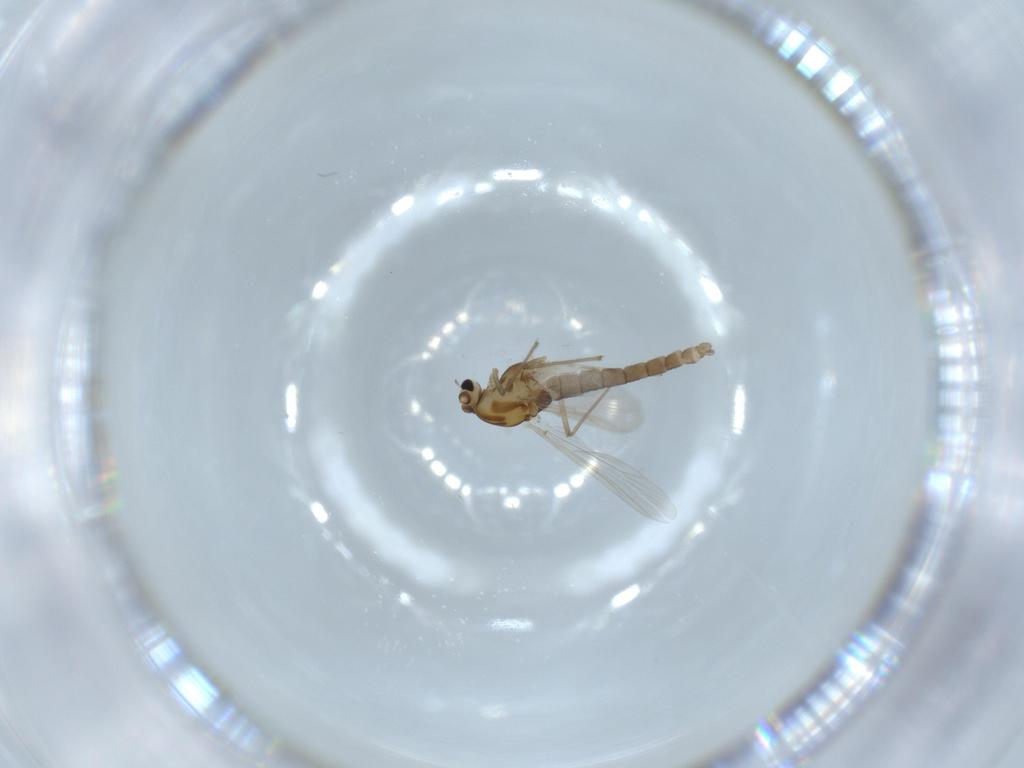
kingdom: Animalia
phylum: Arthropoda
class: Insecta
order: Diptera
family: Chironomidae
